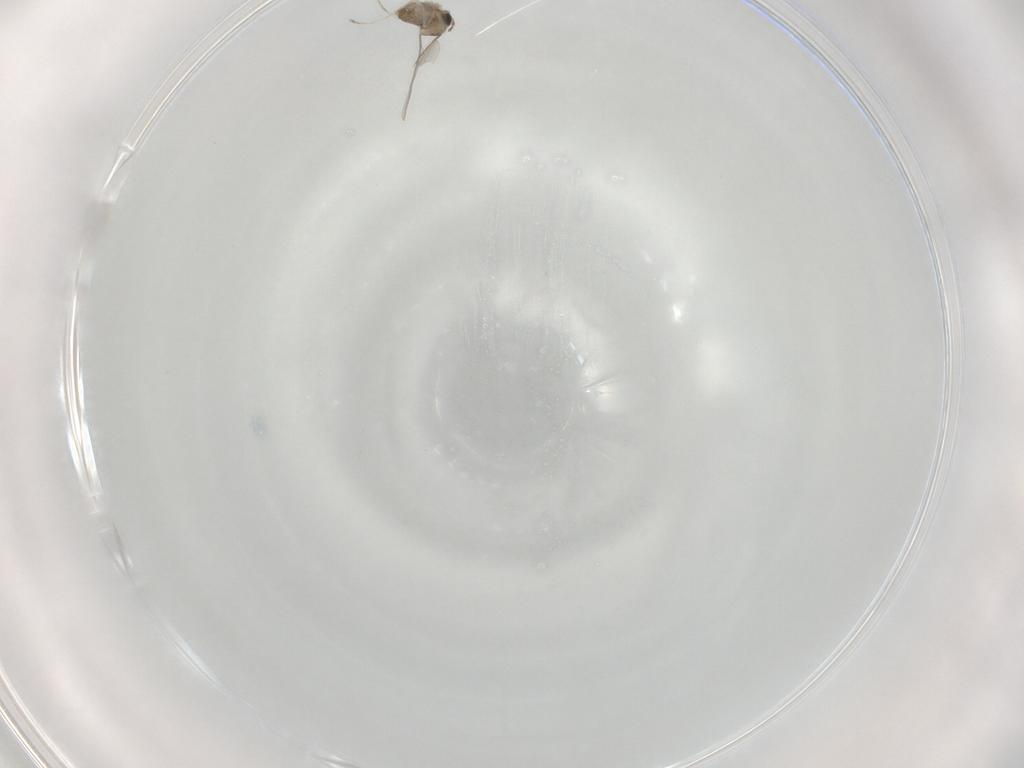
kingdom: Animalia
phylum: Arthropoda
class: Insecta
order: Diptera
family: Cecidomyiidae
